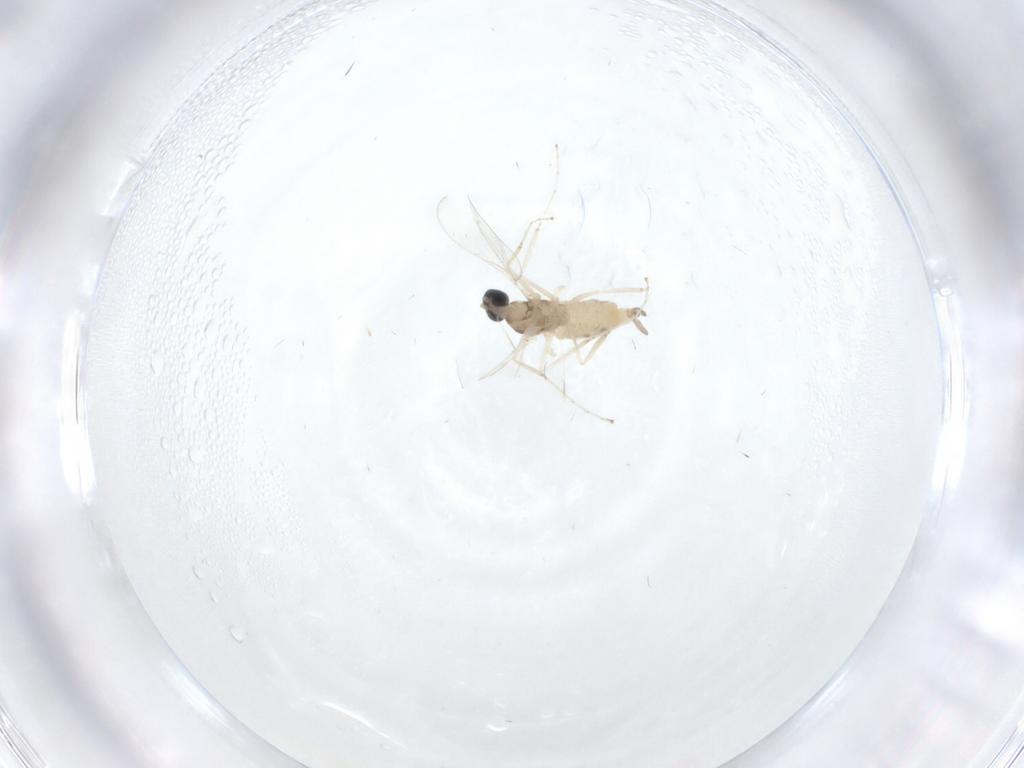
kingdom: Animalia
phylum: Arthropoda
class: Insecta
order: Diptera
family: Cecidomyiidae
